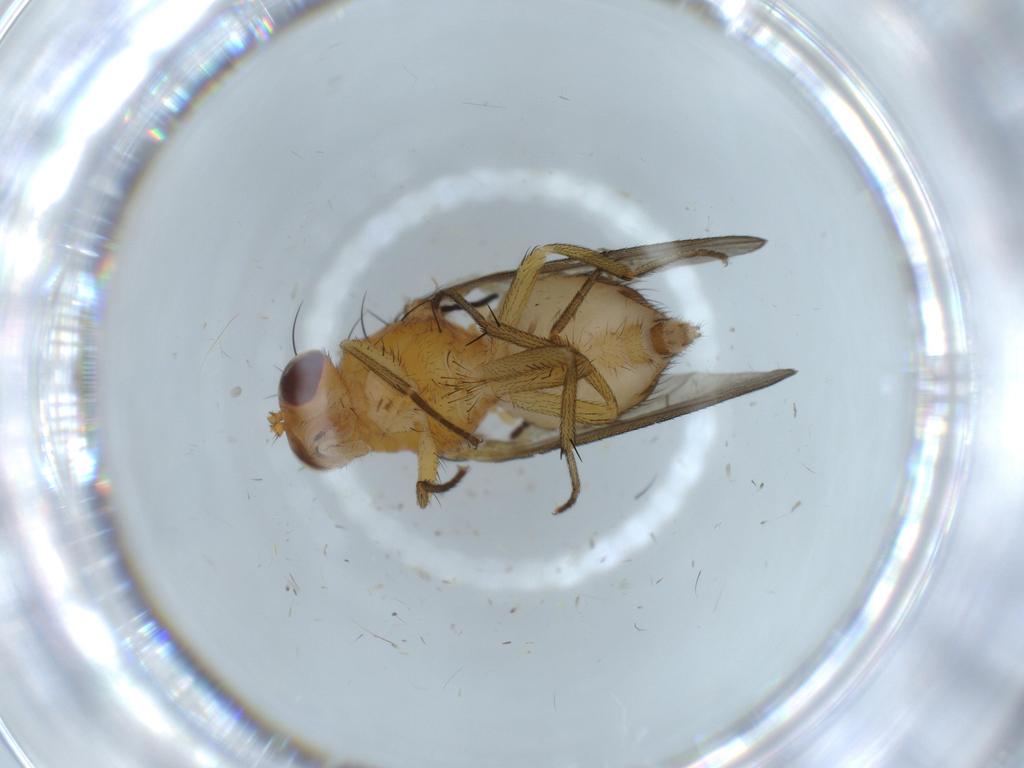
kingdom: Animalia
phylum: Arthropoda
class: Insecta
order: Diptera
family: Lauxaniidae
